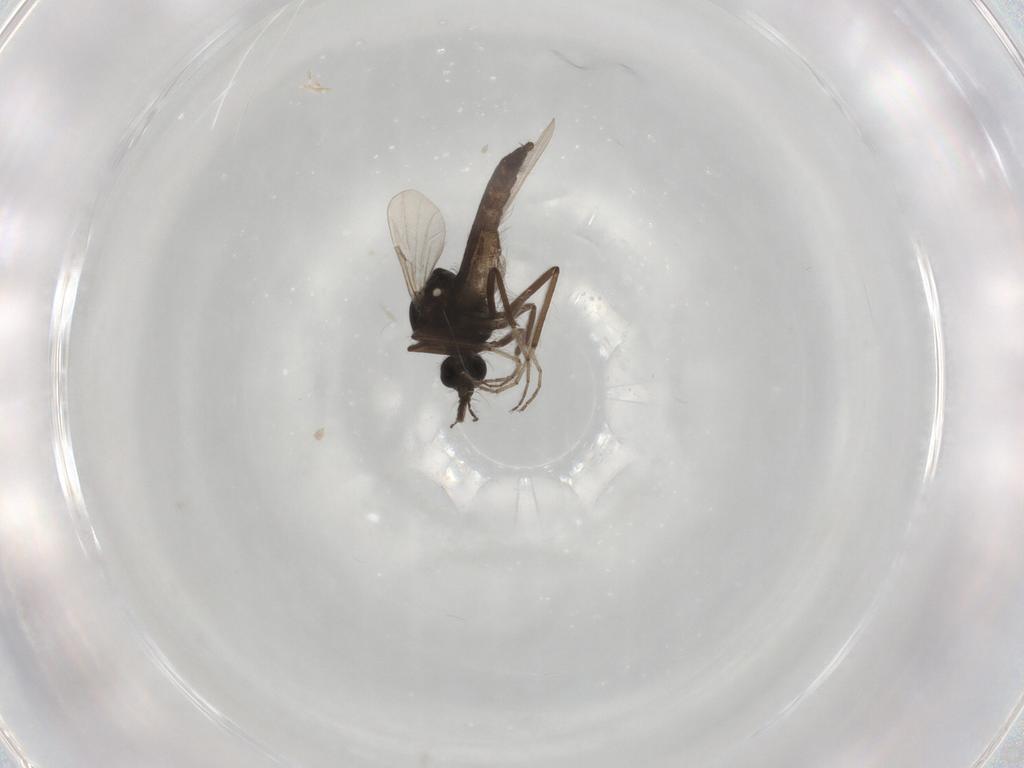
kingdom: Animalia
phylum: Arthropoda
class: Insecta
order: Diptera
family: Ceratopogonidae
